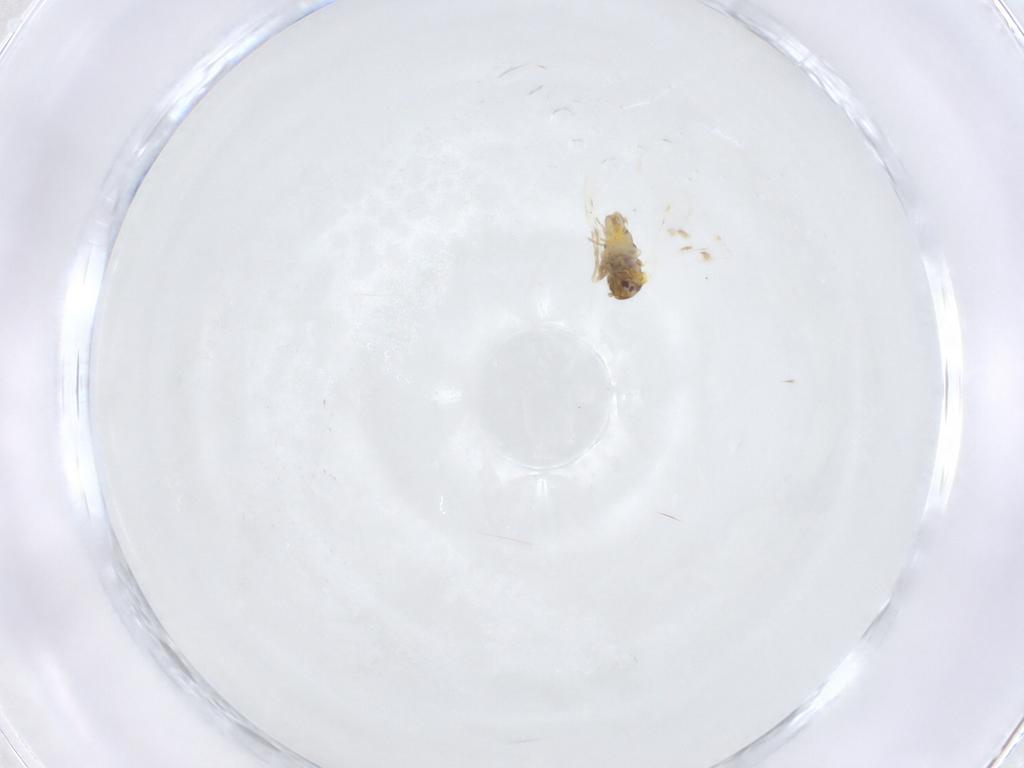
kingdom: Animalia
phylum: Arthropoda
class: Insecta
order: Hemiptera
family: Aleyrodidae
